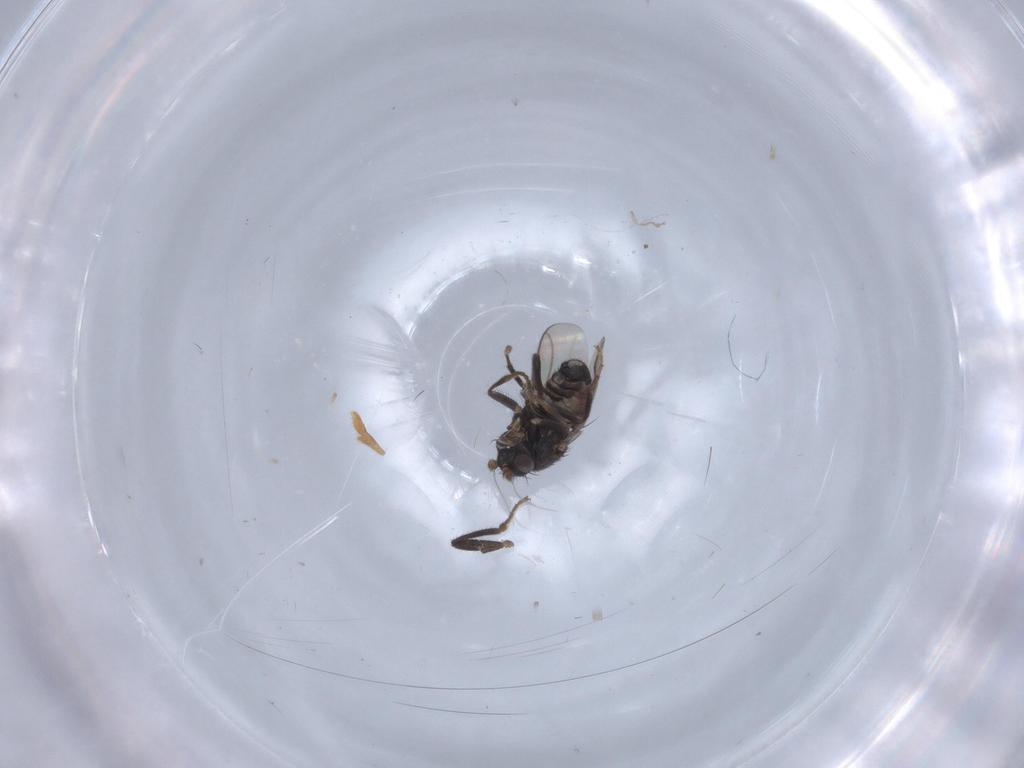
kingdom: Animalia
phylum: Arthropoda
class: Insecta
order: Diptera
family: Sphaeroceridae
